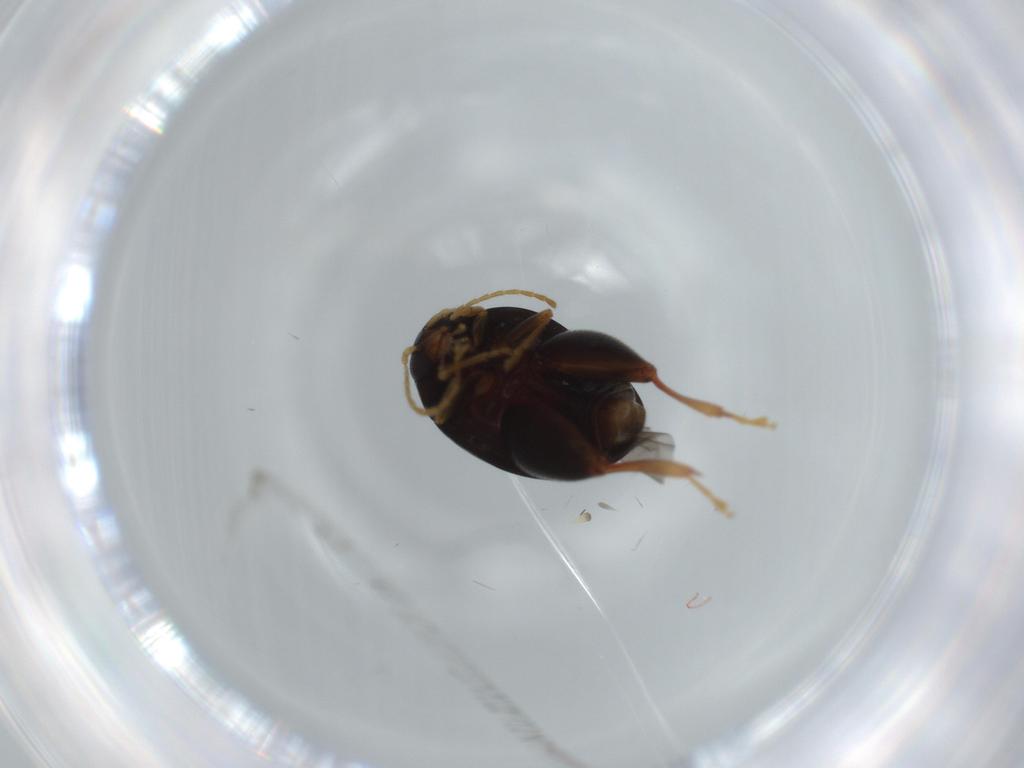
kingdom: Animalia
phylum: Arthropoda
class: Insecta
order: Coleoptera
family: Chrysomelidae
